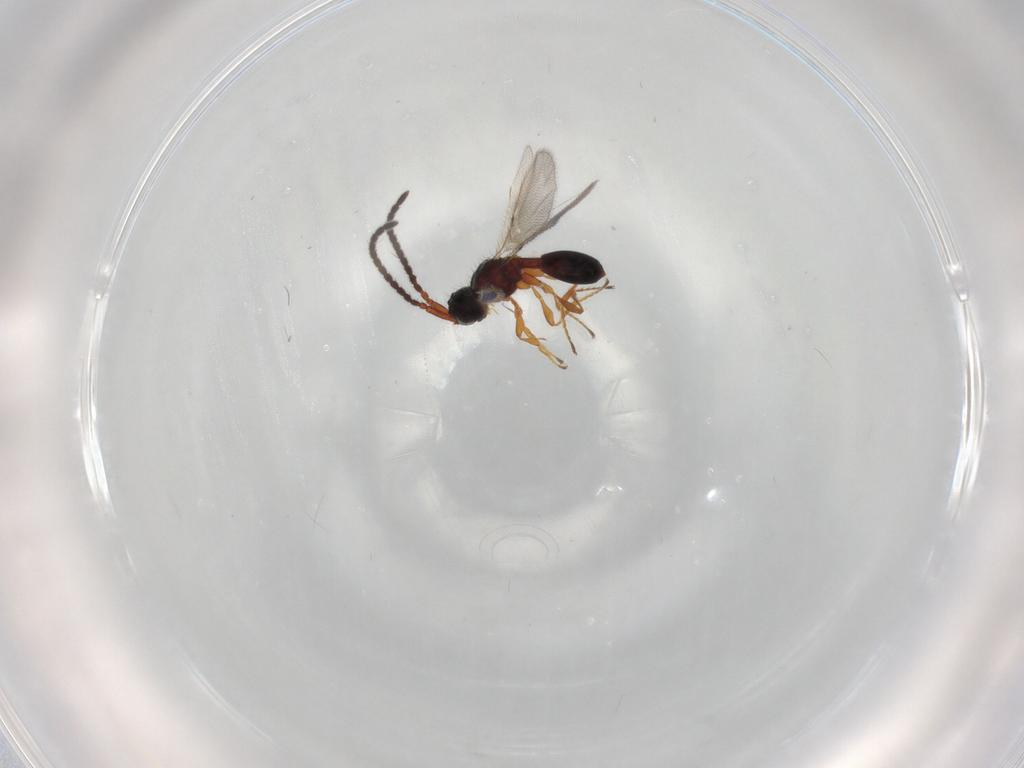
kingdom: Animalia
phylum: Arthropoda
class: Insecta
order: Hymenoptera
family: Diapriidae
